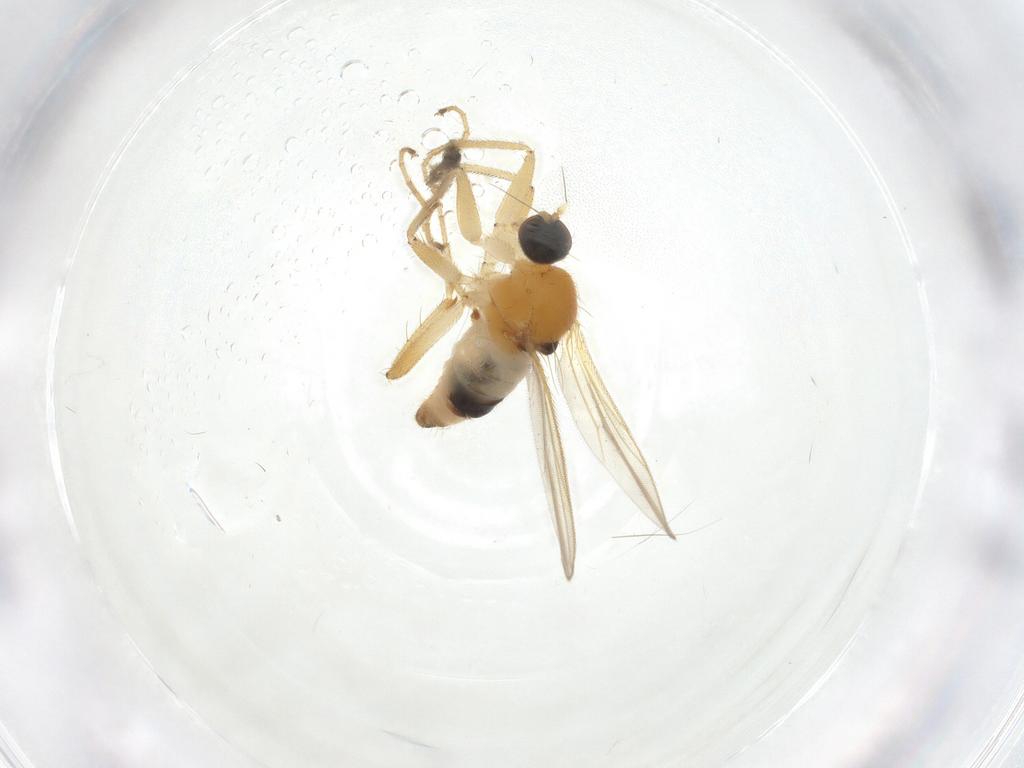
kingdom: Animalia
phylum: Arthropoda
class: Insecta
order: Diptera
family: Hybotidae
